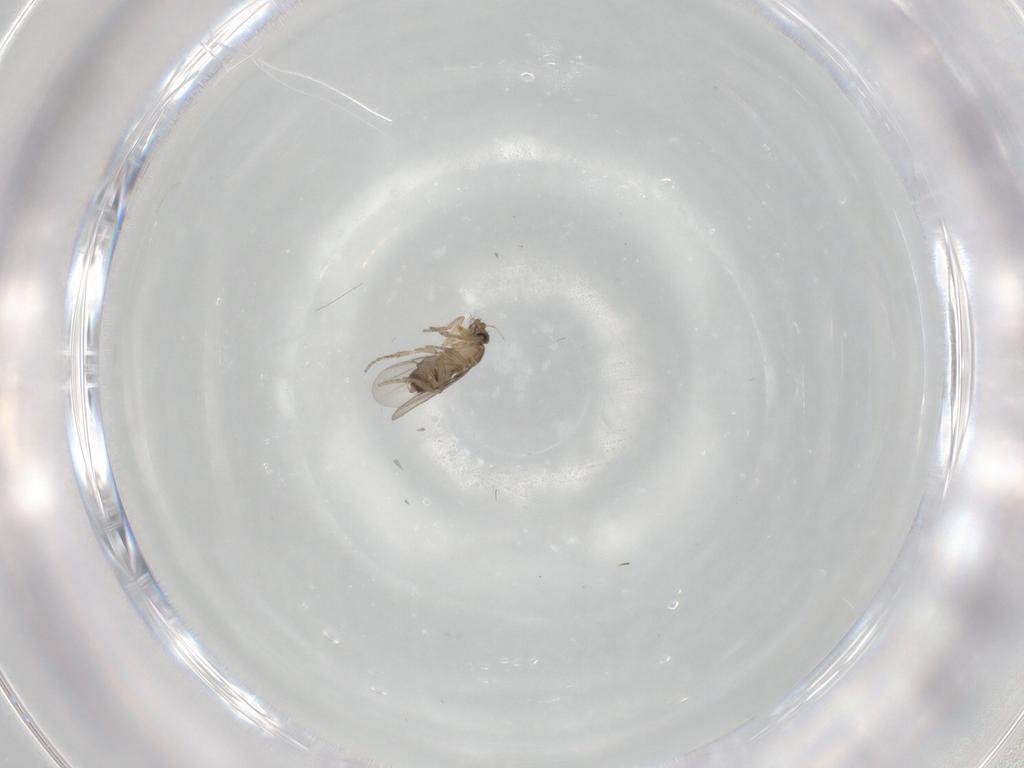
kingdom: Animalia
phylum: Arthropoda
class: Insecta
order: Diptera
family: Phoridae
